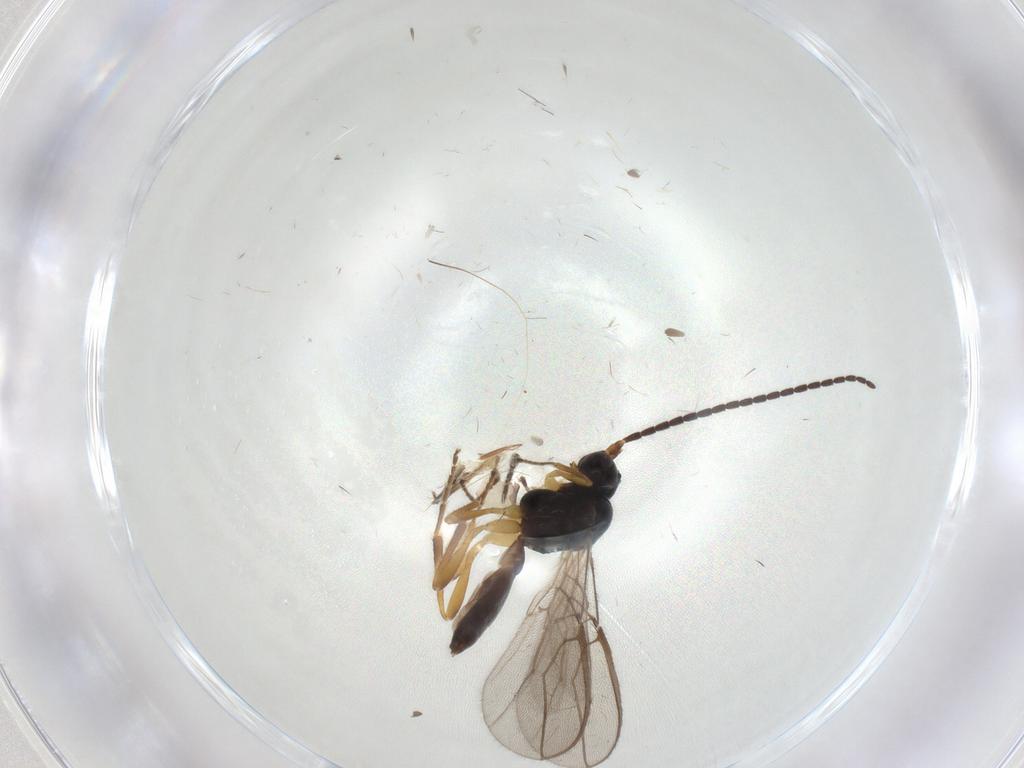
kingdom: Animalia
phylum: Arthropoda
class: Insecta
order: Hymenoptera
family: Braconidae
